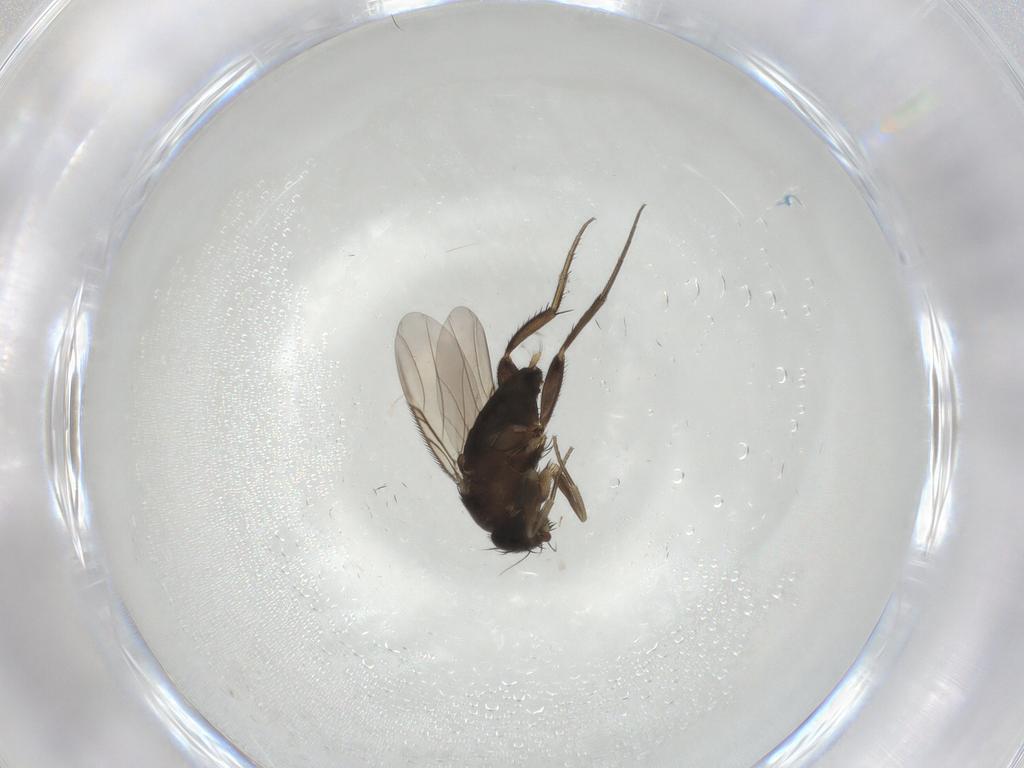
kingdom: Animalia
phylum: Arthropoda
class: Insecta
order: Diptera
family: Phoridae
